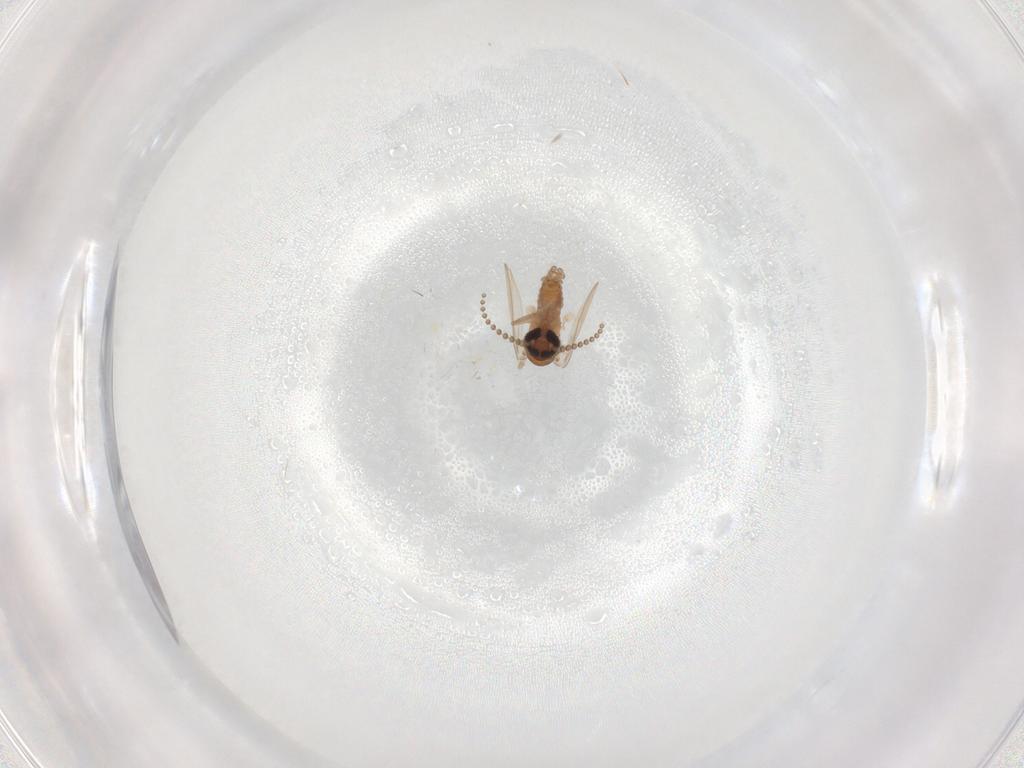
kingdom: Animalia
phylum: Arthropoda
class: Insecta
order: Diptera
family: Psychodidae
